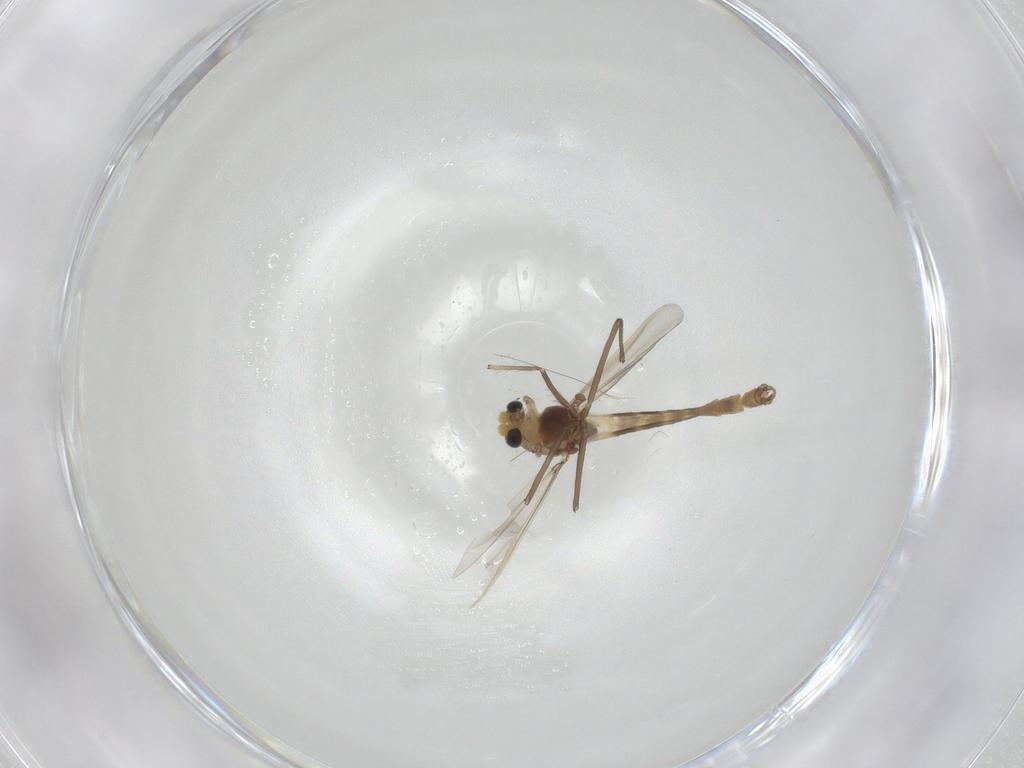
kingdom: Animalia
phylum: Arthropoda
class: Insecta
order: Diptera
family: Chironomidae
